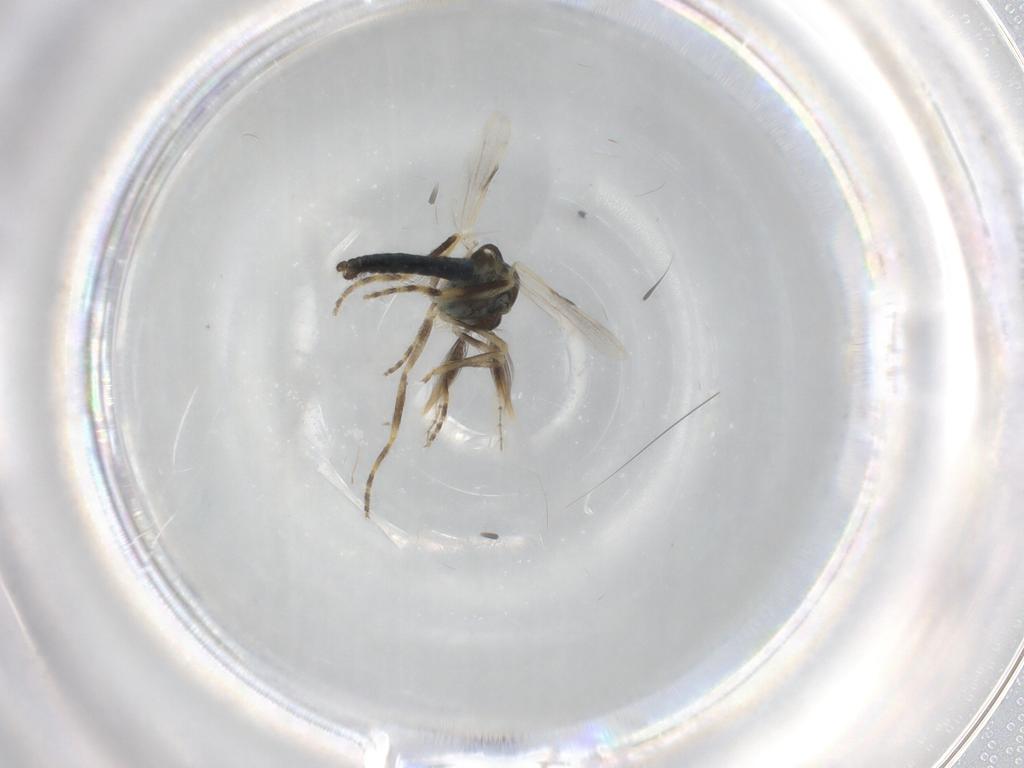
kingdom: Animalia
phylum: Arthropoda
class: Insecta
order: Diptera
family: Ceratopogonidae
